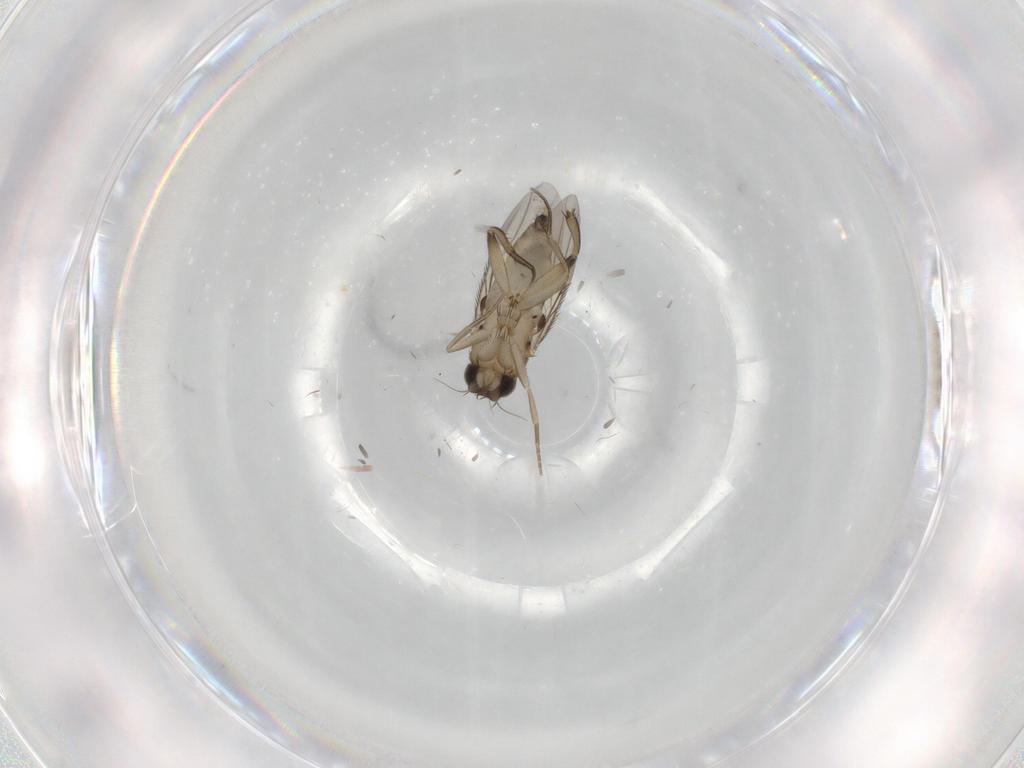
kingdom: Animalia
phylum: Arthropoda
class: Insecta
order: Diptera
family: Phoridae
